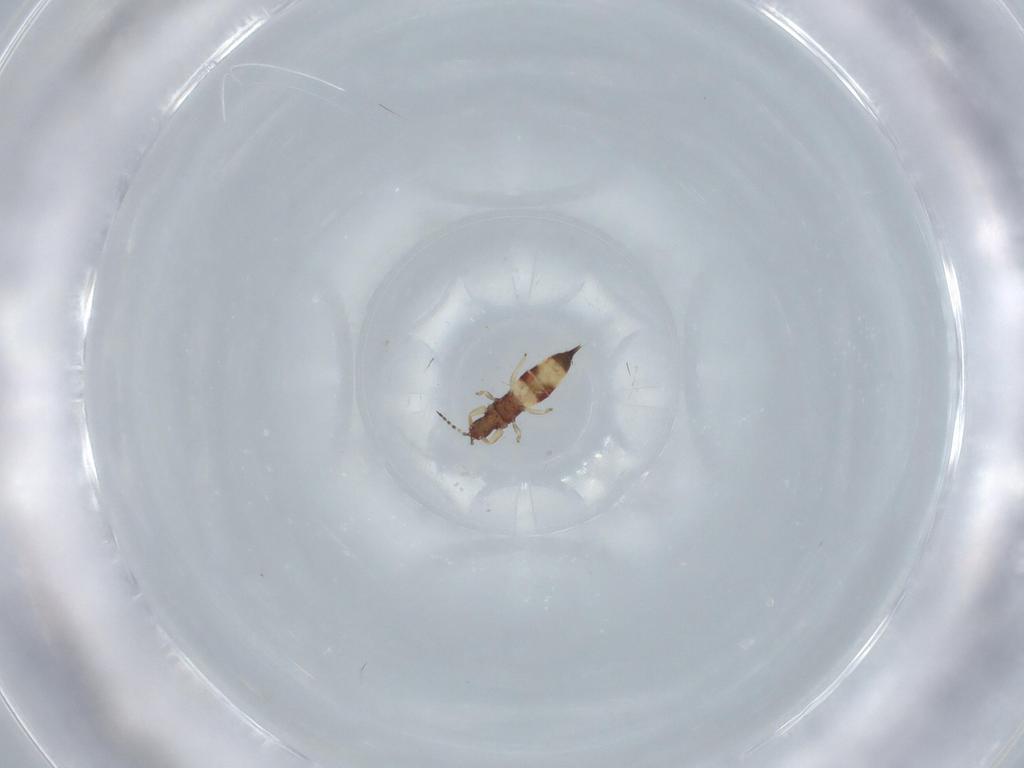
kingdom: Animalia
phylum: Arthropoda
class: Insecta
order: Thysanoptera
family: Phlaeothripidae
